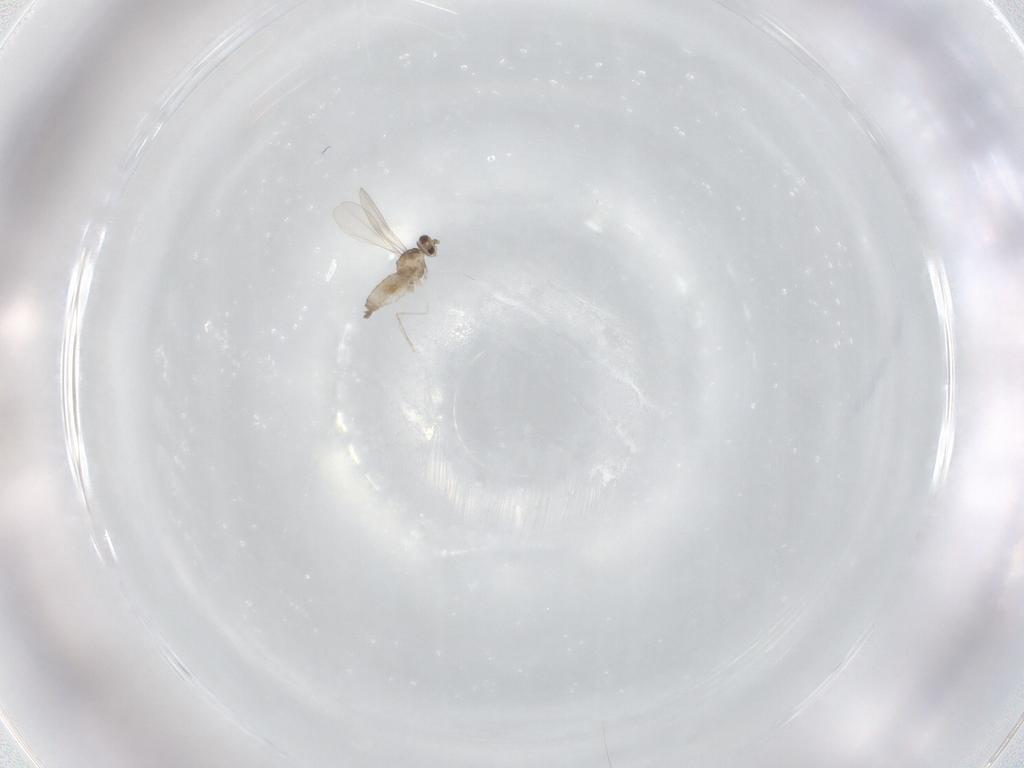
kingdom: Animalia
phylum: Arthropoda
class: Insecta
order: Diptera
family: Cecidomyiidae
